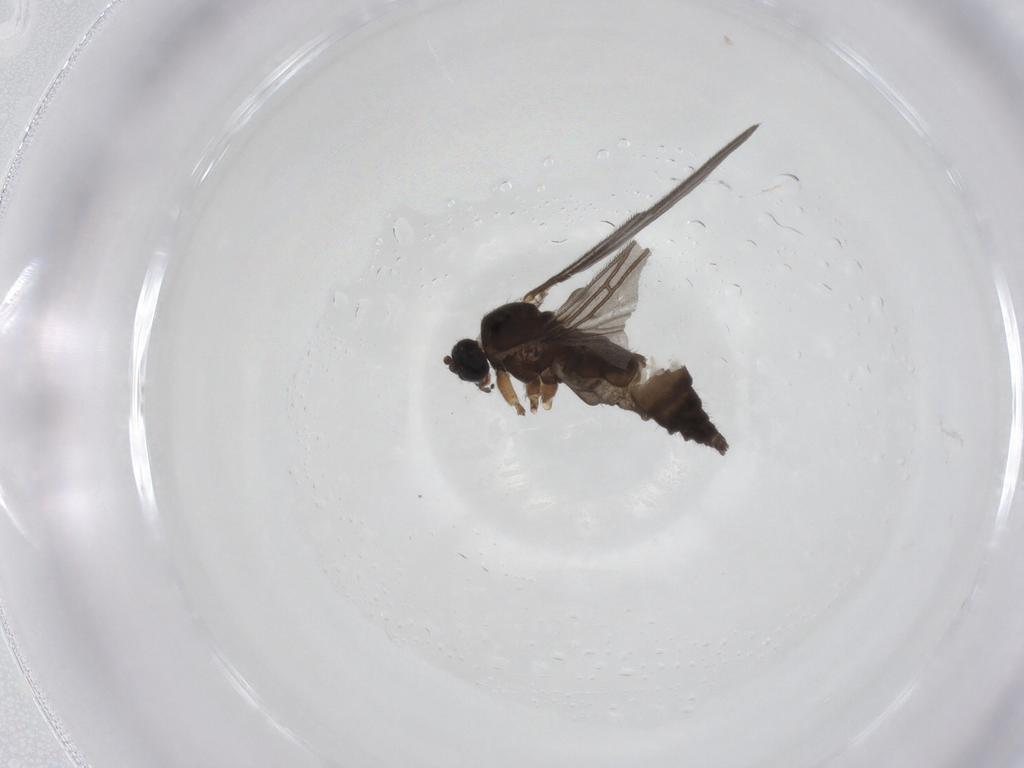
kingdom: Animalia
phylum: Arthropoda
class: Insecta
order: Diptera
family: Sciaridae
